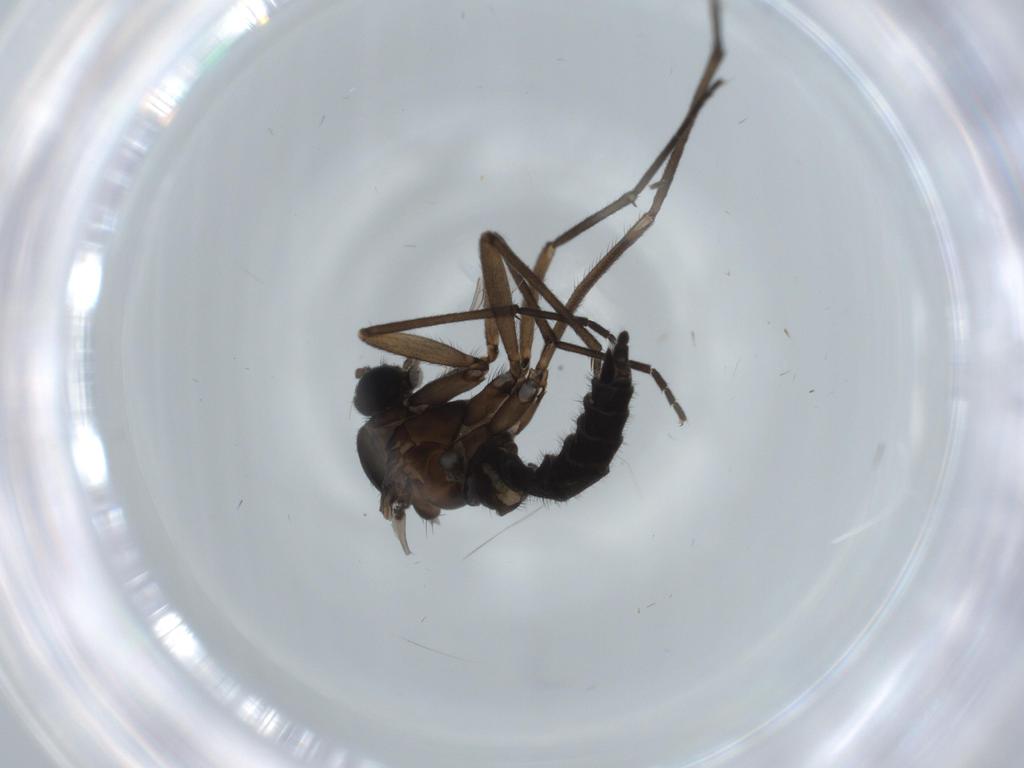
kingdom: Animalia
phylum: Arthropoda
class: Insecta
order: Diptera
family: Sciaridae
